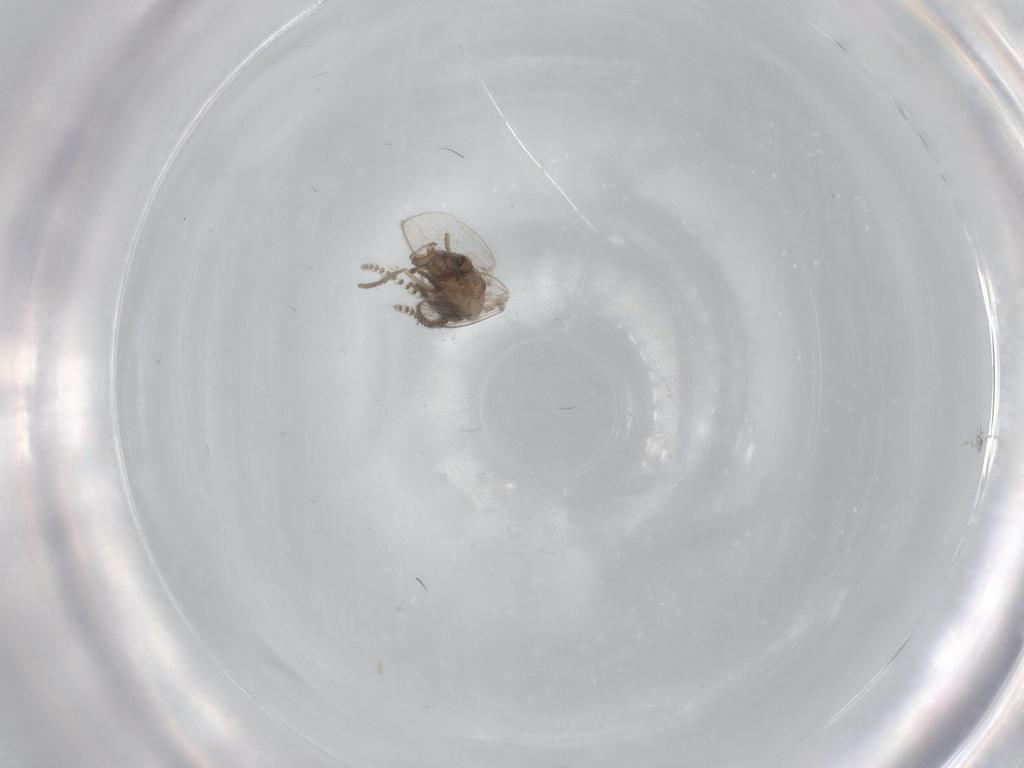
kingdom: Animalia
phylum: Arthropoda
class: Insecta
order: Diptera
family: Psychodidae
